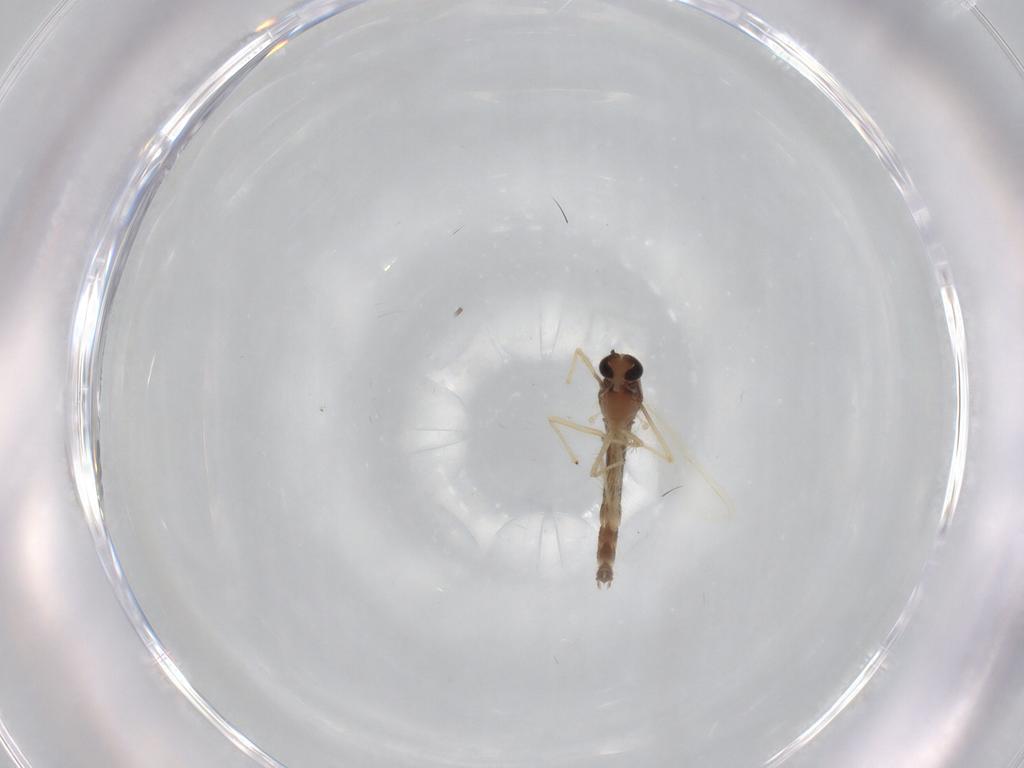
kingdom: Animalia
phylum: Arthropoda
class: Insecta
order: Diptera
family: Chironomidae
